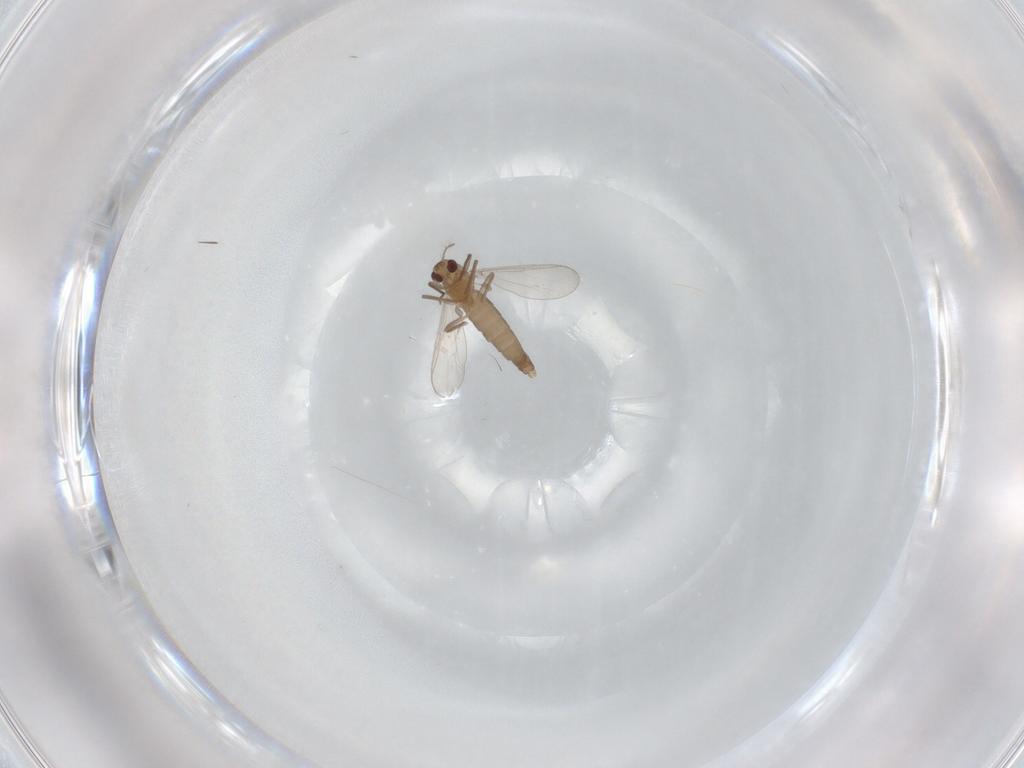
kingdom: Animalia
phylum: Arthropoda
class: Insecta
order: Diptera
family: Chironomidae
